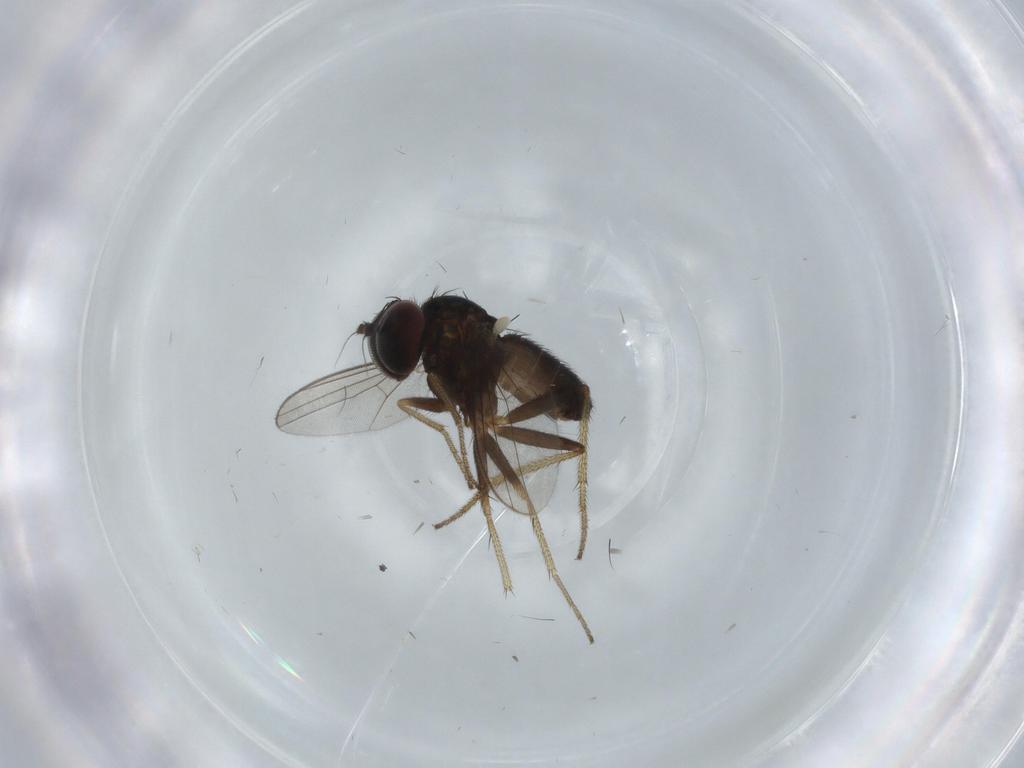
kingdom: Animalia
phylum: Arthropoda
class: Insecta
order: Diptera
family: Dolichopodidae
